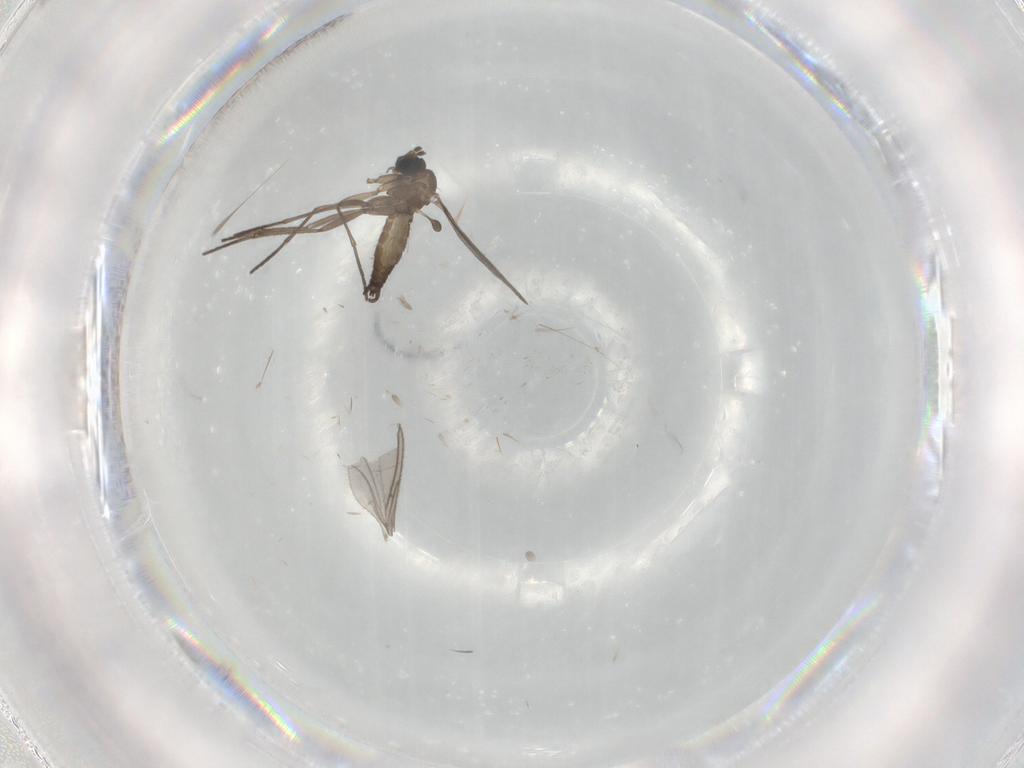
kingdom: Animalia
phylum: Arthropoda
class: Insecta
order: Diptera
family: Sciaridae
